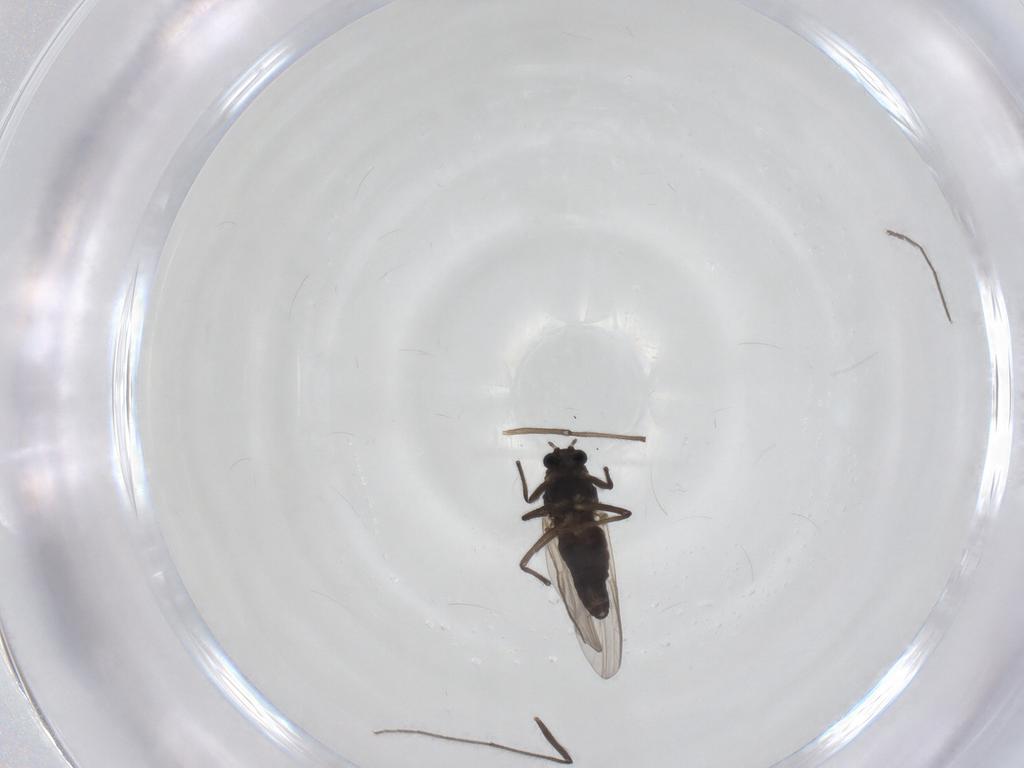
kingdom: Animalia
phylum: Arthropoda
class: Insecta
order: Diptera
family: Chironomidae
